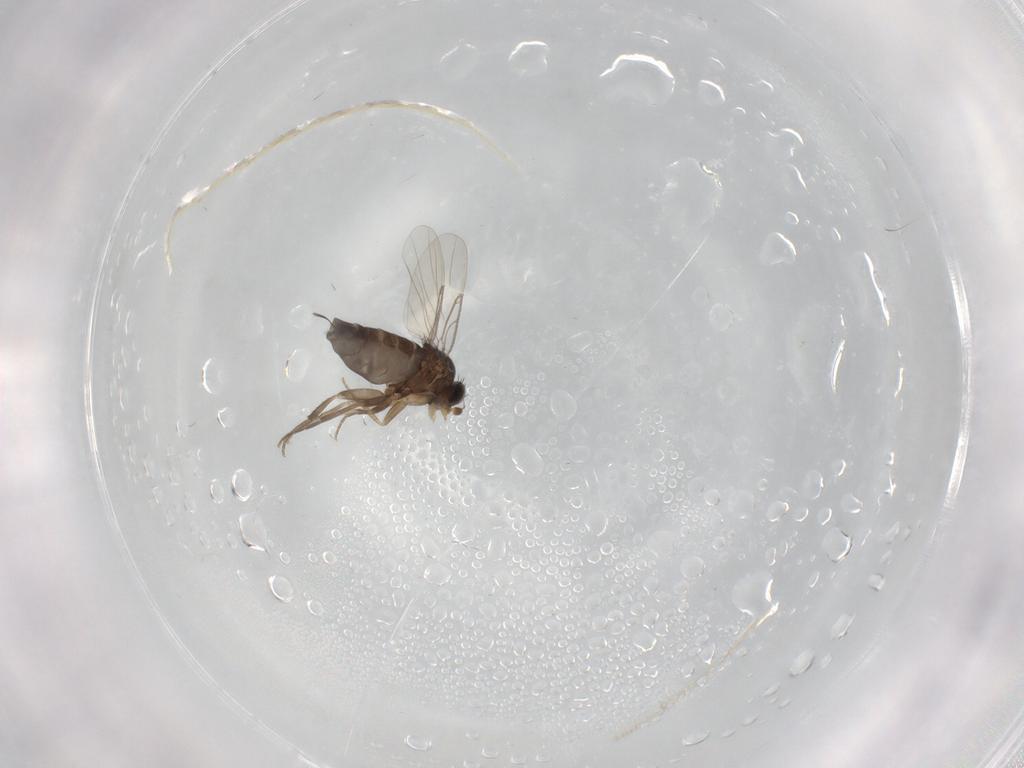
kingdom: Animalia
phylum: Arthropoda
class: Insecta
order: Diptera
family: Phoridae
